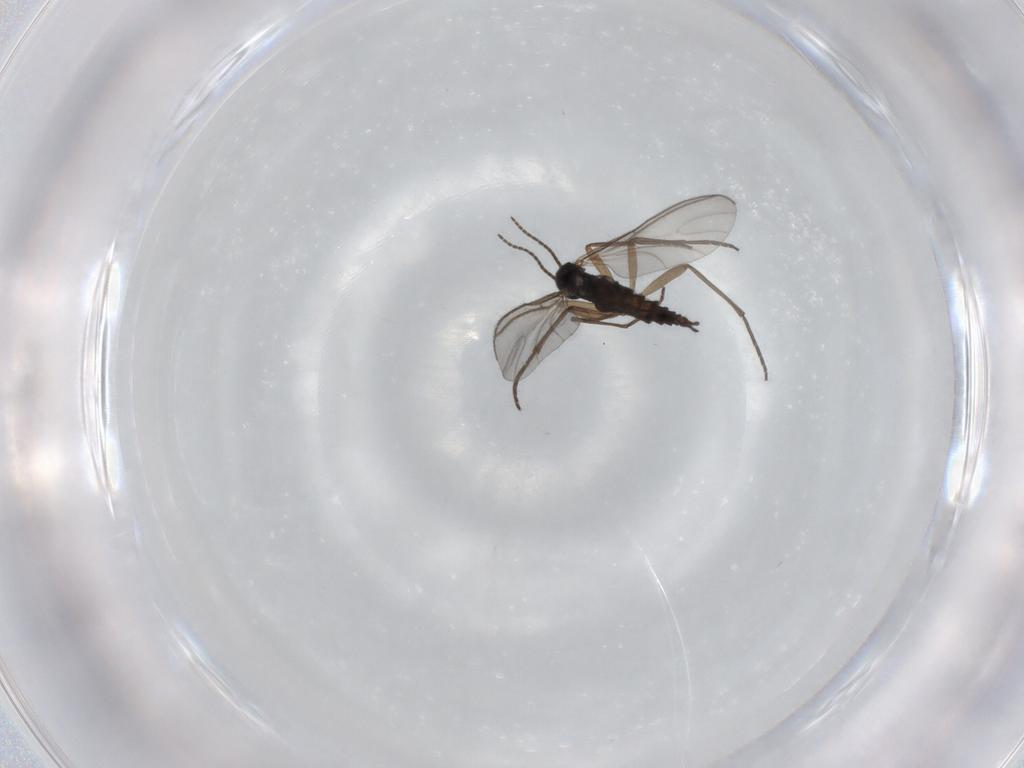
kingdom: Animalia
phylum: Arthropoda
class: Insecta
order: Diptera
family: Sciaridae
